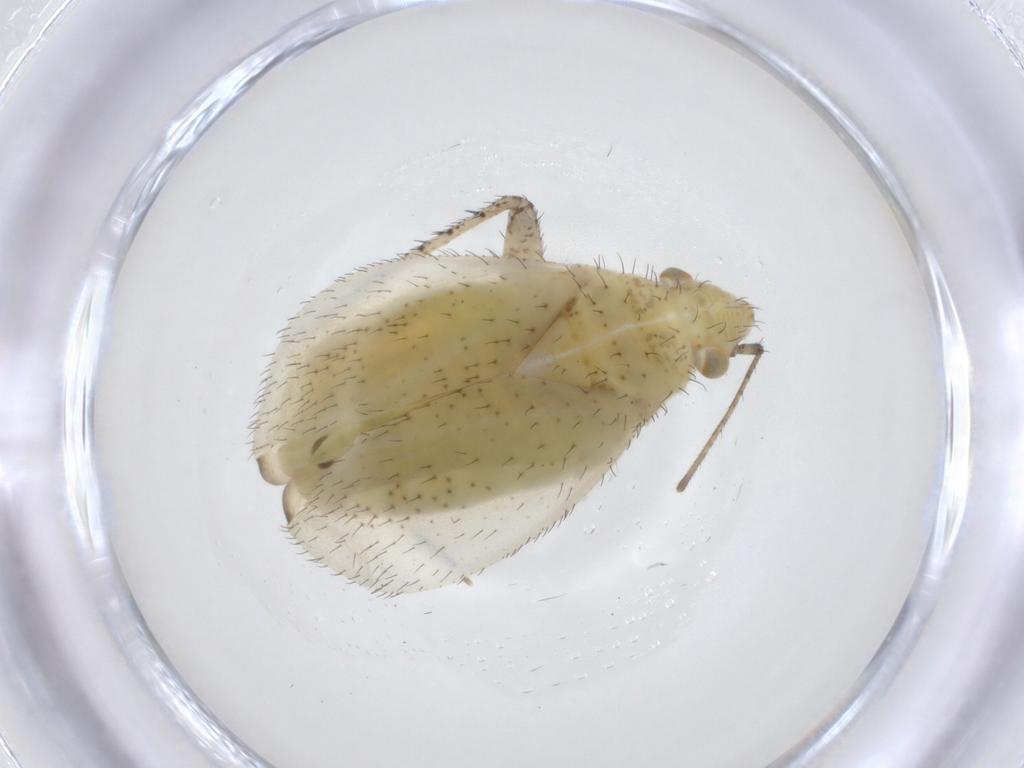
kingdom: Animalia
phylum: Arthropoda
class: Insecta
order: Hemiptera
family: Miridae
